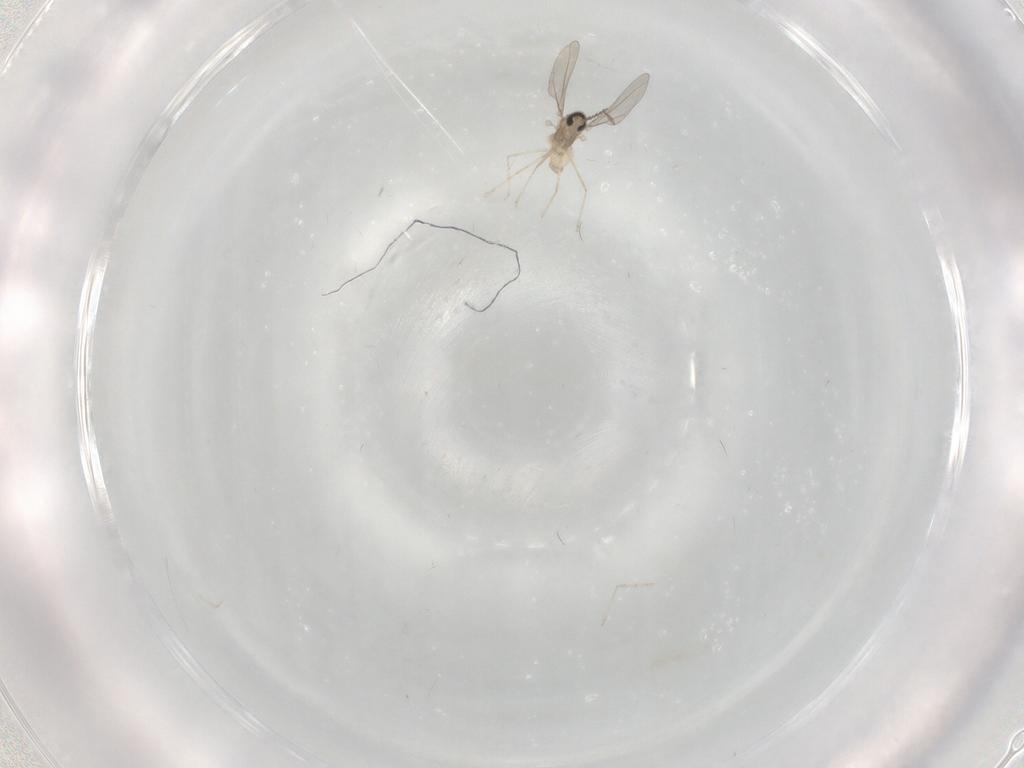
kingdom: Animalia
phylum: Arthropoda
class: Insecta
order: Diptera
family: Cecidomyiidae
